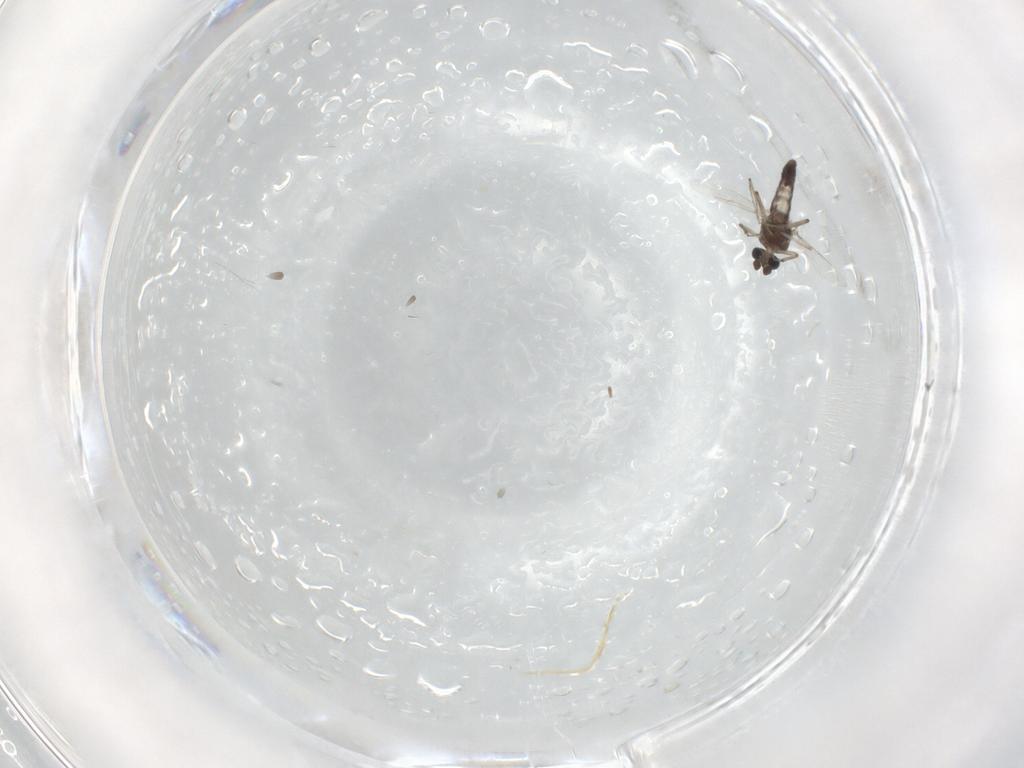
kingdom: Animalia
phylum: Arthropoda
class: Insecta
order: Diptera
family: Ceratopogonidae
